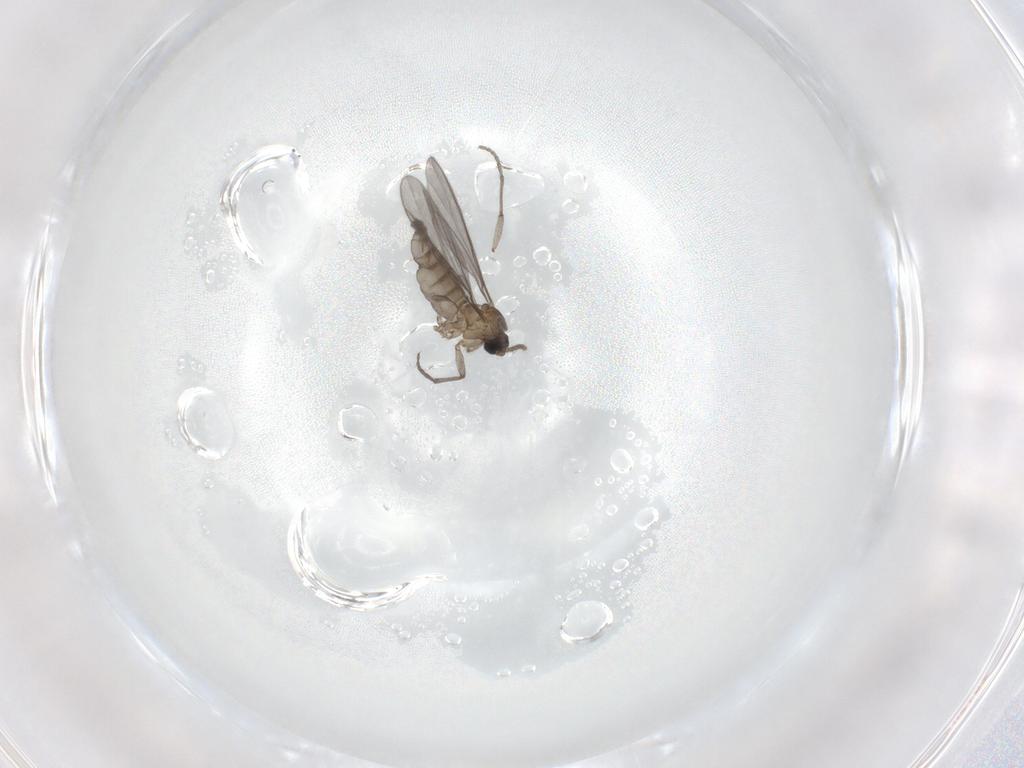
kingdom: Animalia
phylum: Arthropoda
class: Insecta
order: Diptera
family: Sciaridae
